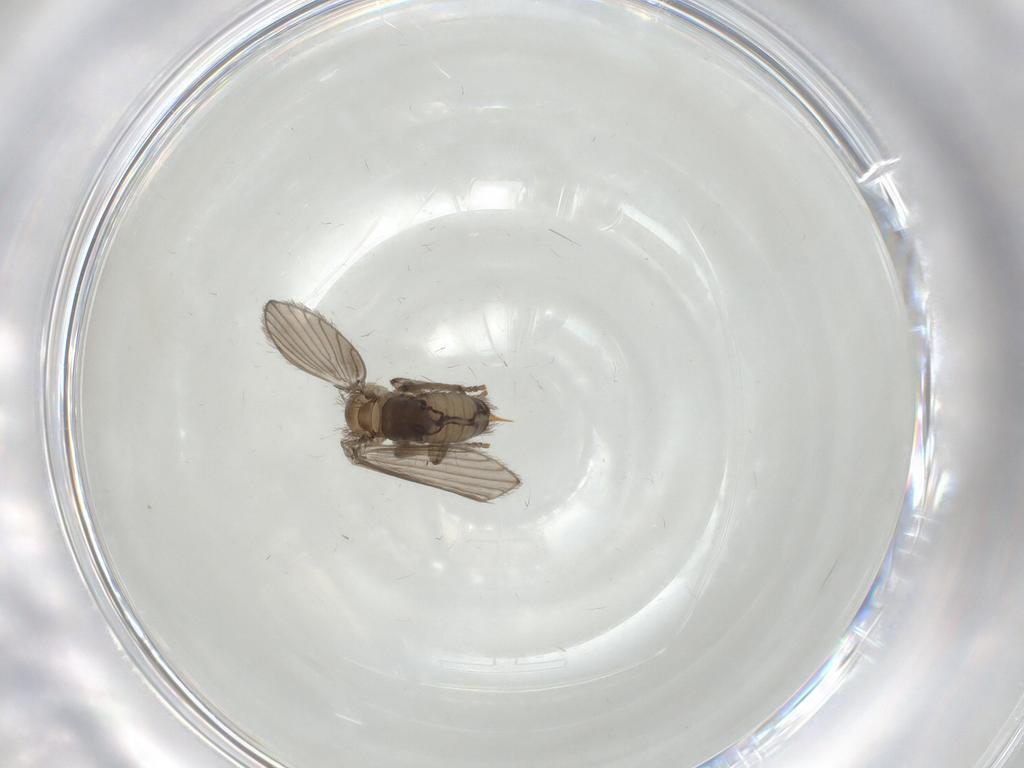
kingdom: Animalia
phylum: Arthropoda
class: Insecta
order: Diptera
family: Psychodidae
